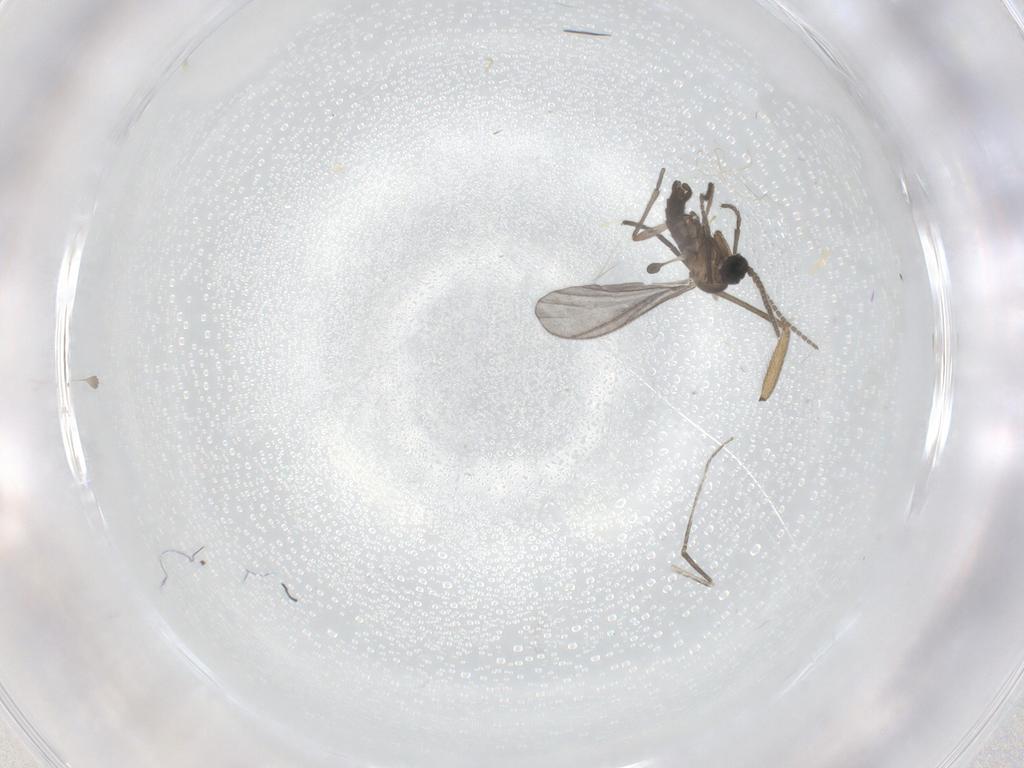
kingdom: Animalia
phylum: Arthropoda
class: Insecta
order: Diptera
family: Sciaridae
